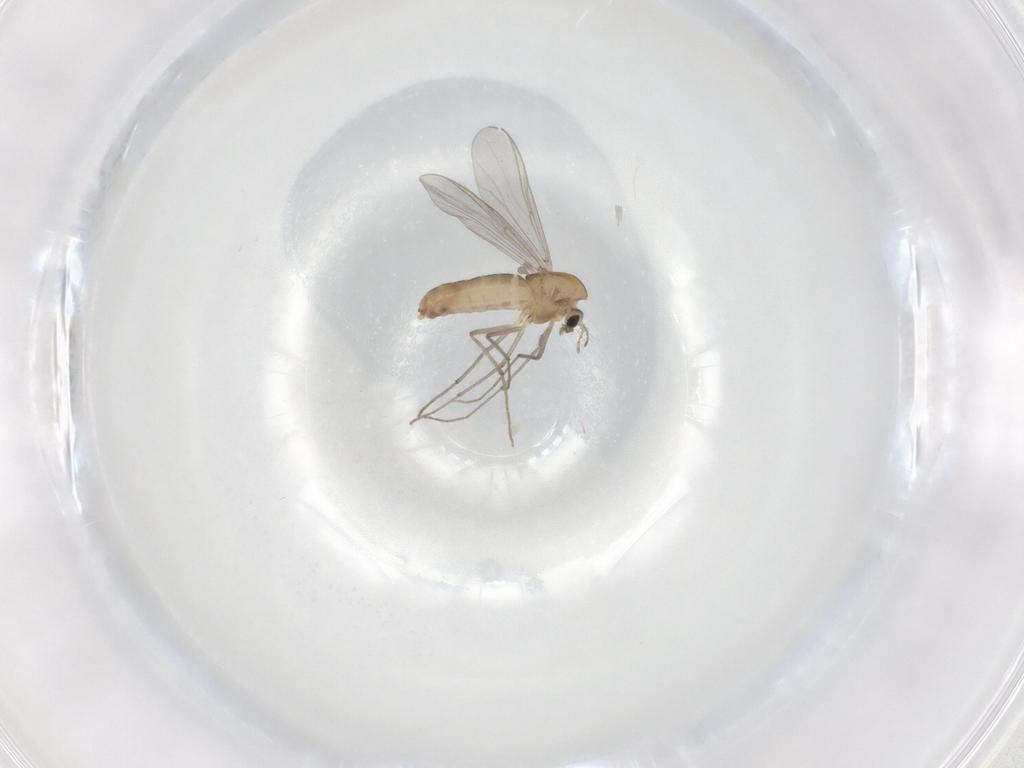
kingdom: Animalia
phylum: Arthropoda
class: Insecta
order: Diptera
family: Chironomidae
